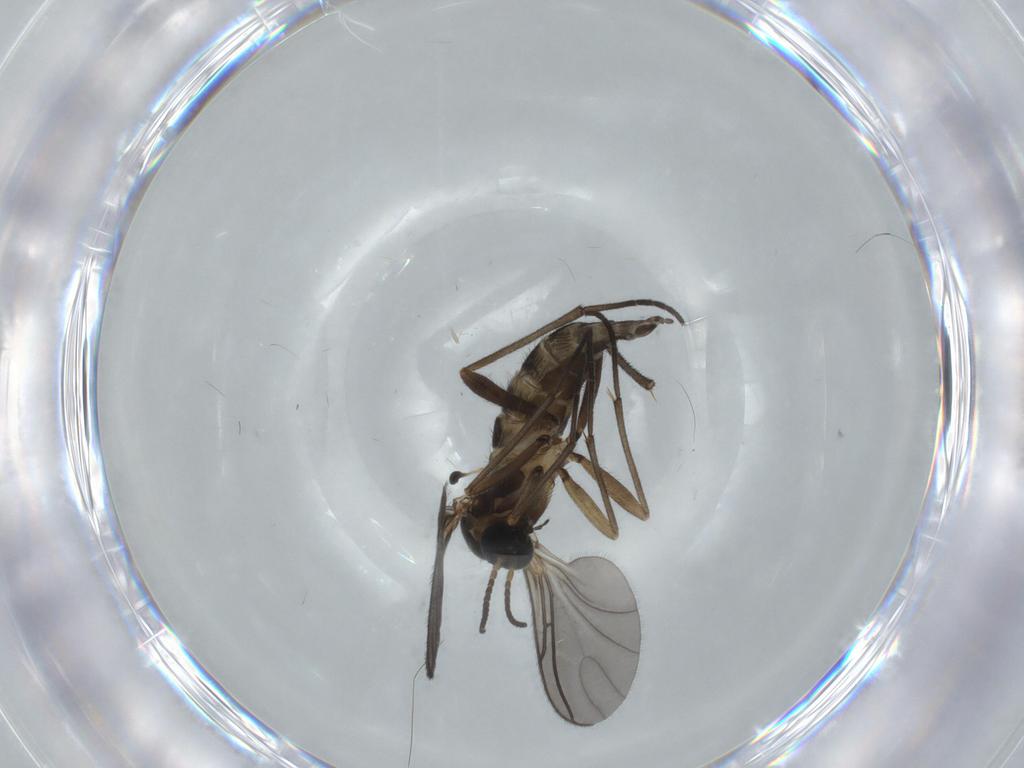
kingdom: Animalia
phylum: Arthropoda
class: Insecta
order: Diptera
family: Sciaridae
